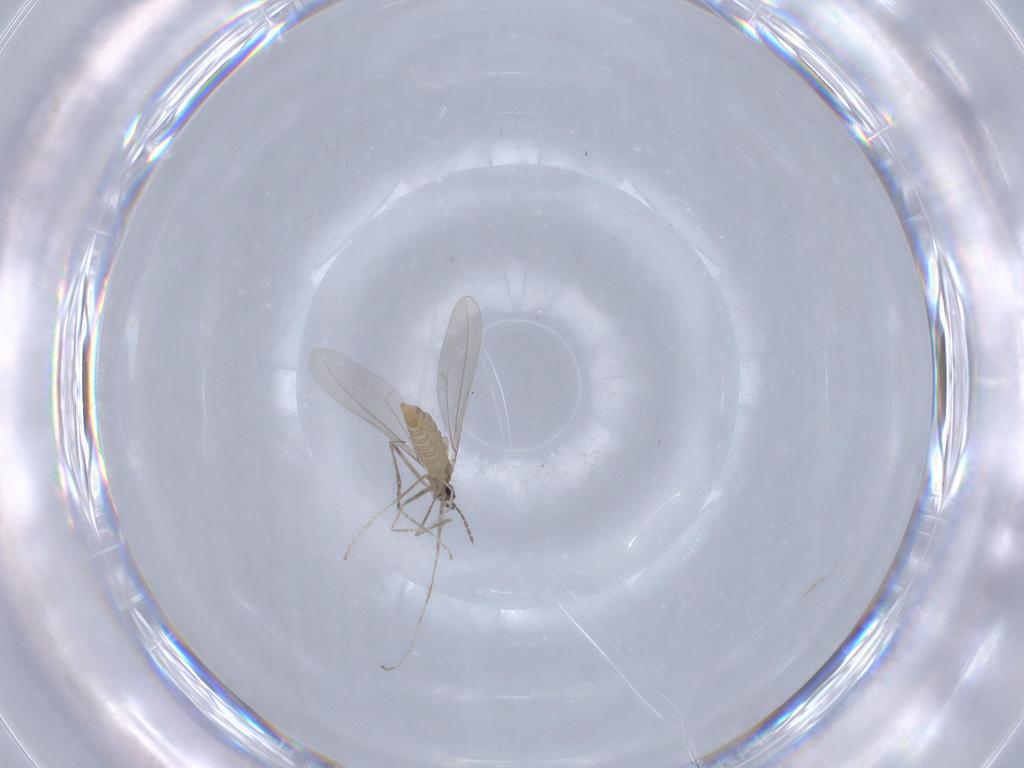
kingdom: Animalia
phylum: Arthropoda
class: Insecta
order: Diptera
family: Cecidomyiidae
